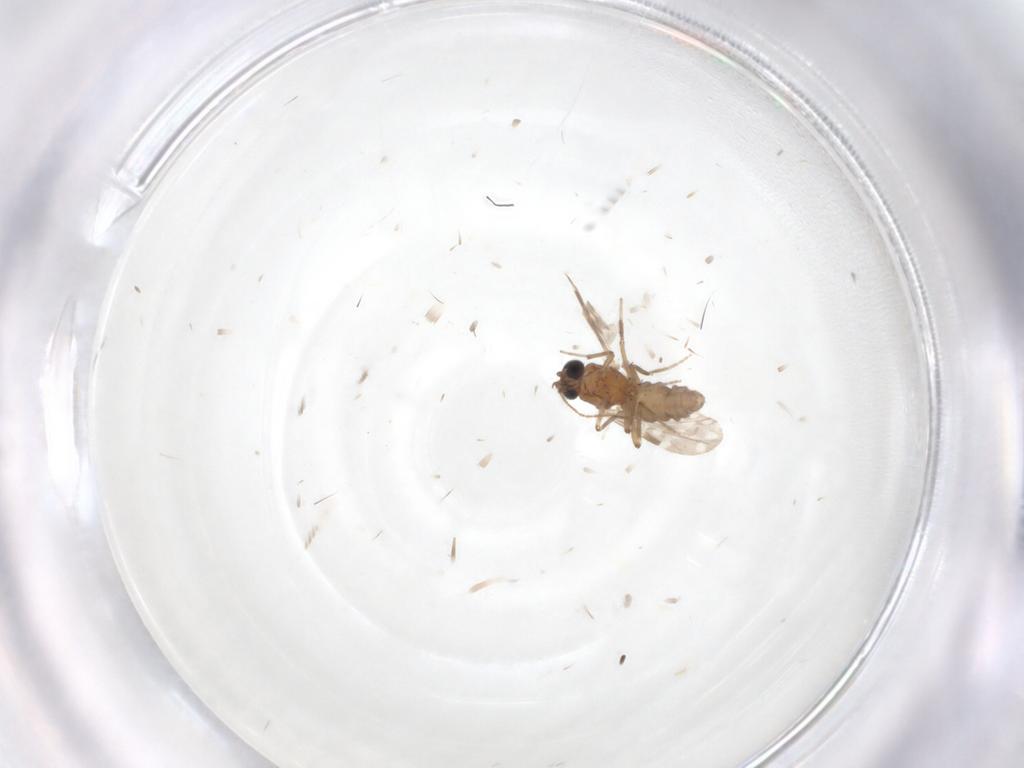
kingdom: Animalia
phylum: Arthropoda
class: Insecta
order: Diptera
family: Ceratopogonidae
